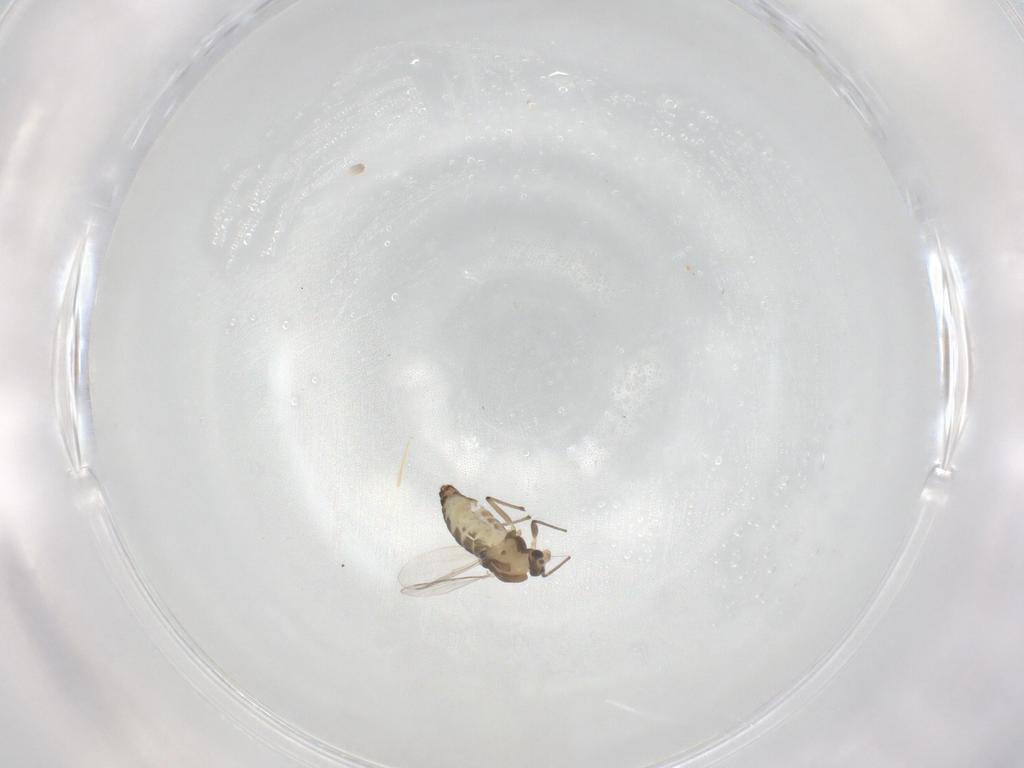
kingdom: Animalia
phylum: Arthropoda
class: Insecta
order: Diptera
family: Chironomidae
